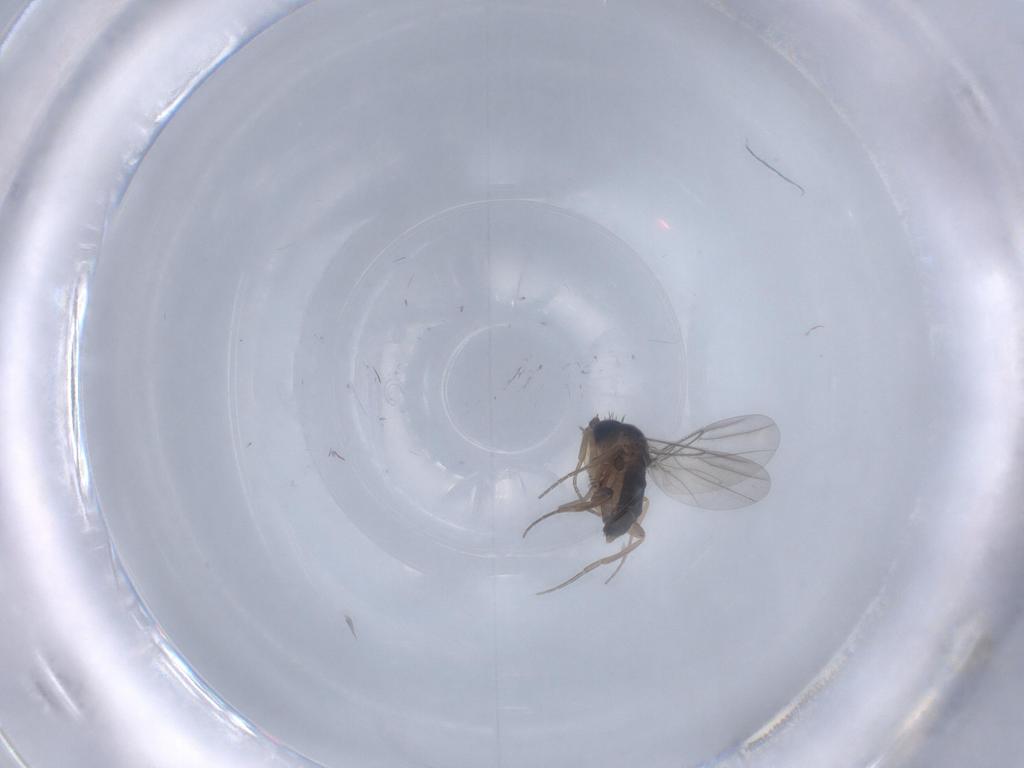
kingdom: Animalia
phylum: Arthropoda
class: Insecta
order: Diptera
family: Phoridae
